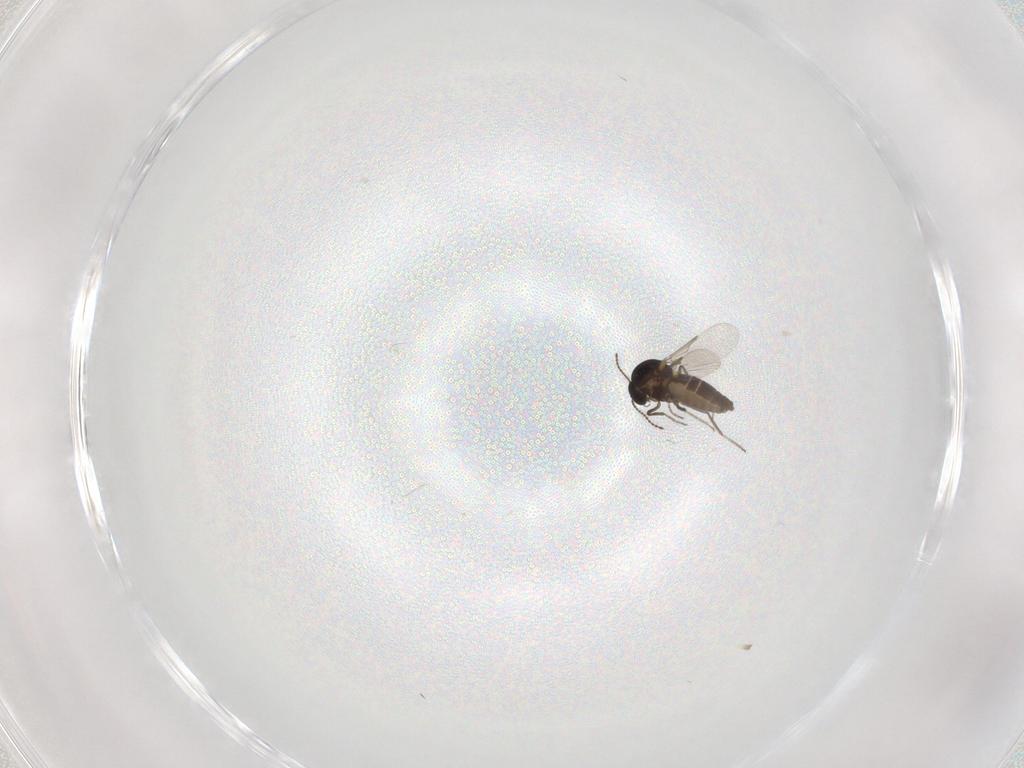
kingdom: Animalia
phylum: Arthropoda
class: Insecta
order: Diptera
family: Ceratopogonidae
